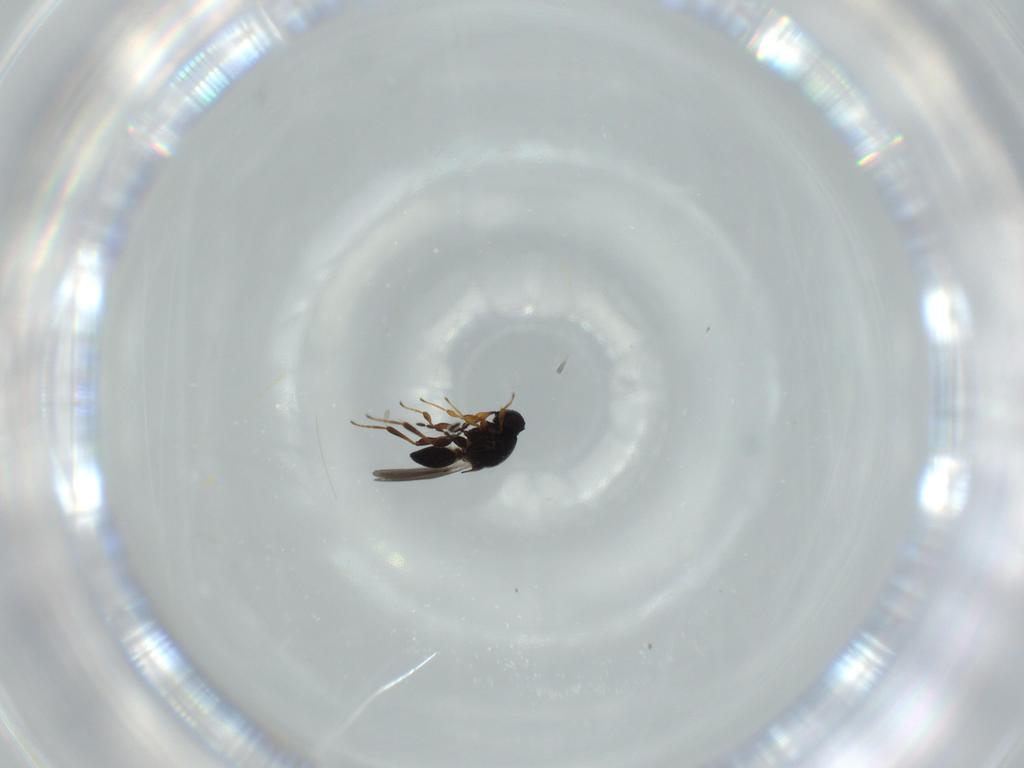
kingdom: Animalia
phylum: Arthropoda
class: Insecta
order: Hymenoptera
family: Platygastridae
